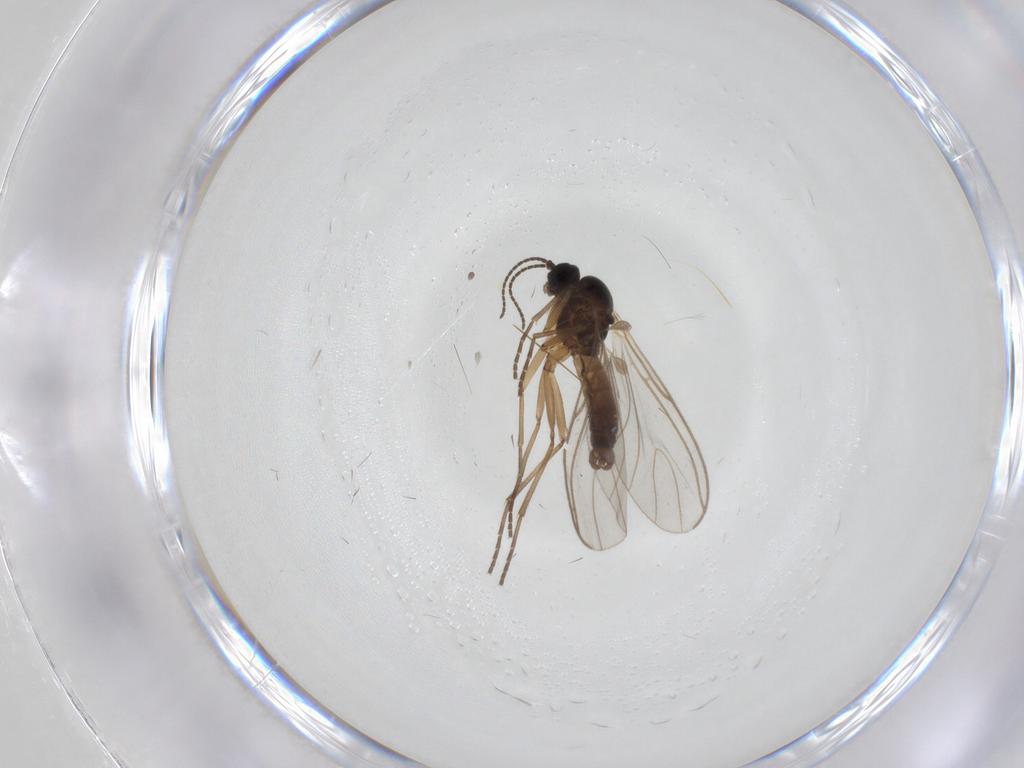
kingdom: Animalia
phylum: Arthropoda
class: Insecta
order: Diptera
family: Sciaridae
